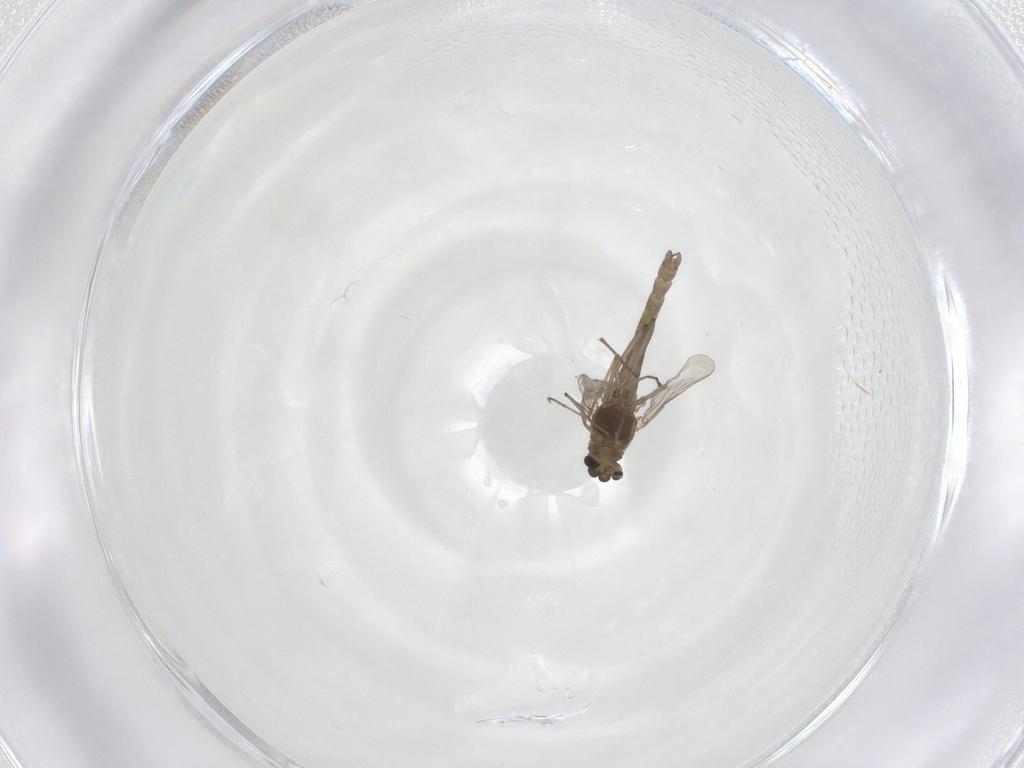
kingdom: Animalia
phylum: Arthropoda
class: Insecta
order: Diptera
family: Chironomidae
